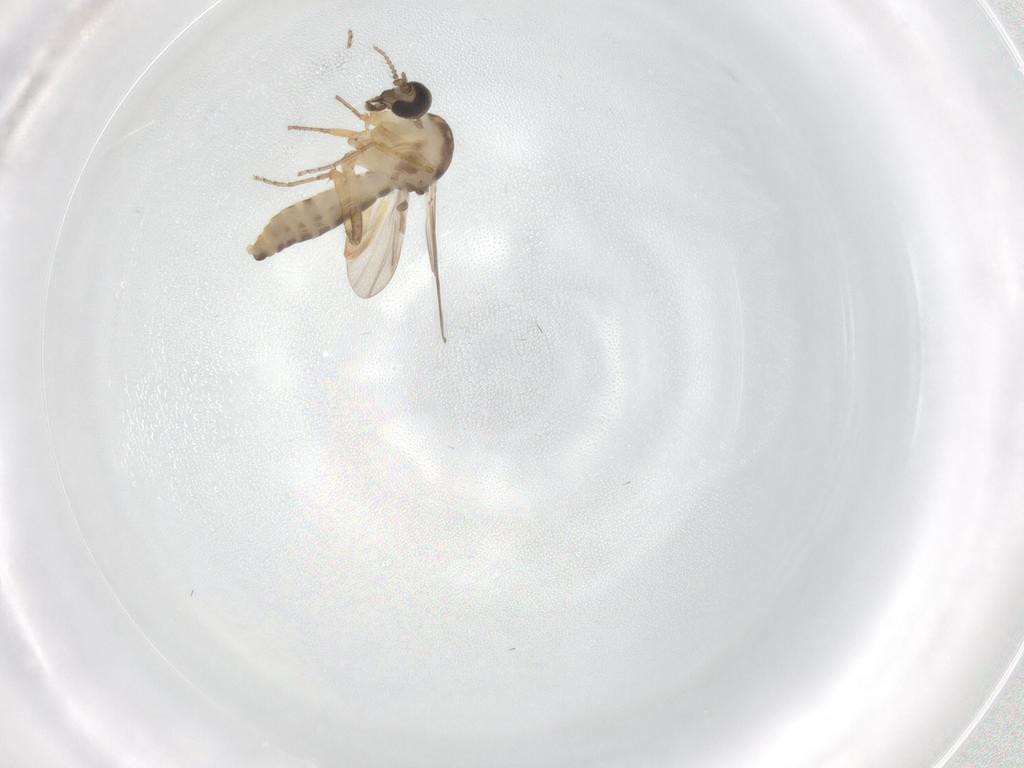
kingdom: Animalia
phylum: Arthropoda
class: Insecta
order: Diptera
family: Ceratopogonidae
